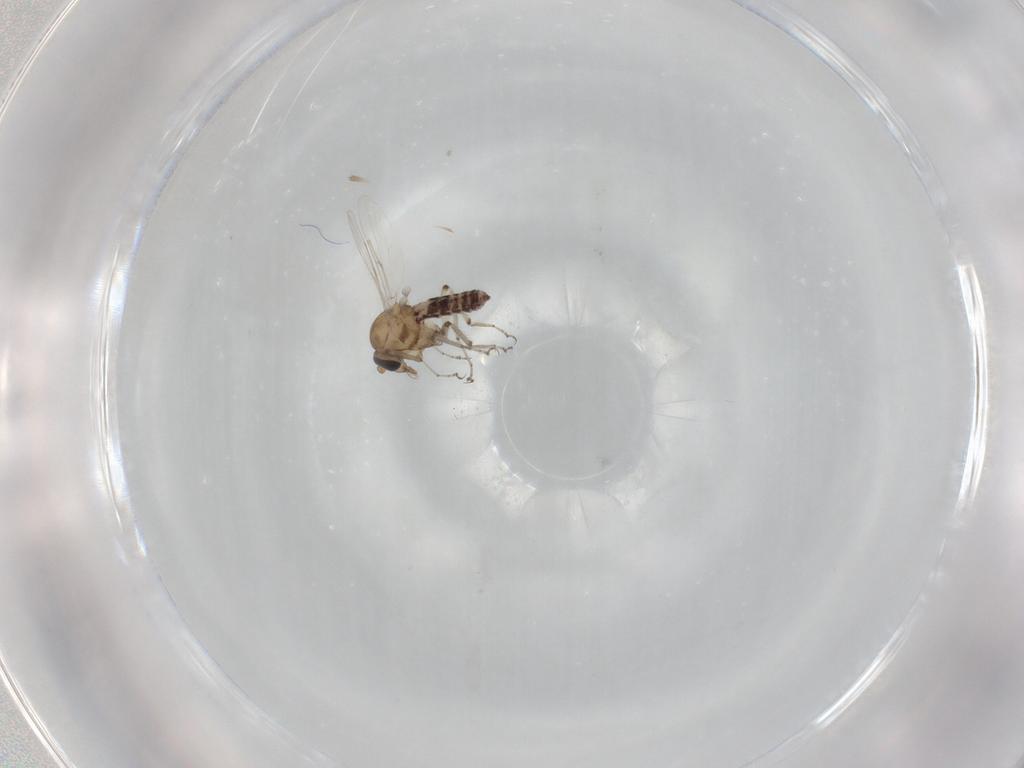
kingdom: Animalia
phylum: Arthropoda
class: Insecta
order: Diptera
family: Ceratopogonidae
